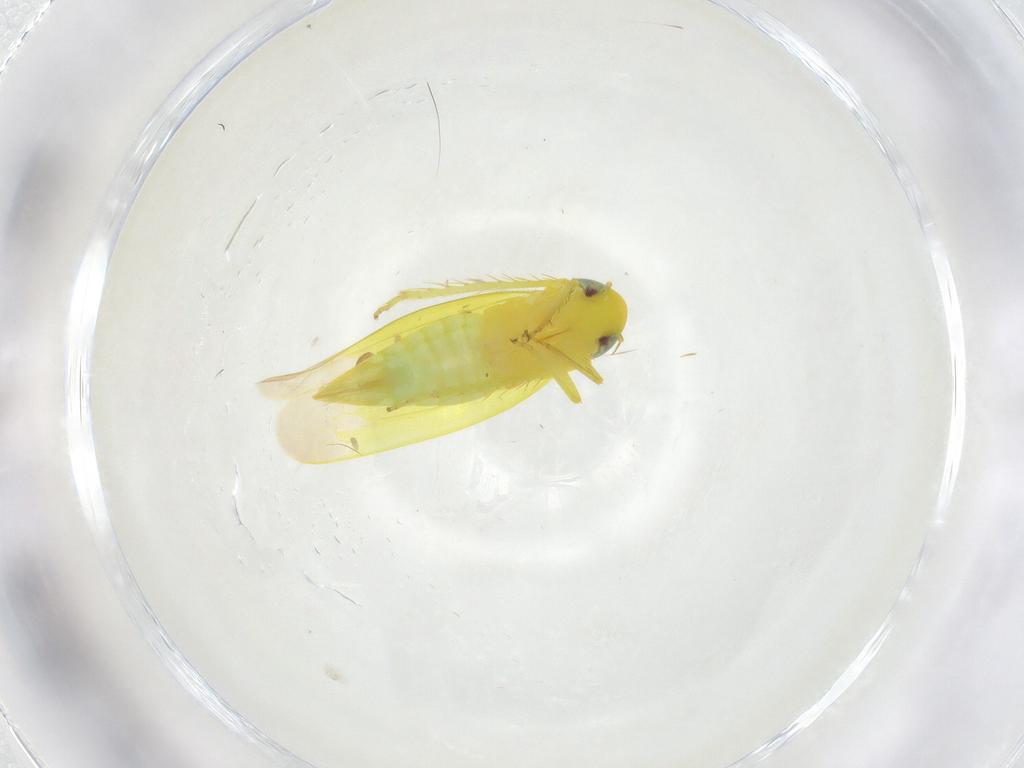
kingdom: Animalia
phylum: Arthropoda
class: Insecta
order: Hemiptera
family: Cicadellidae
